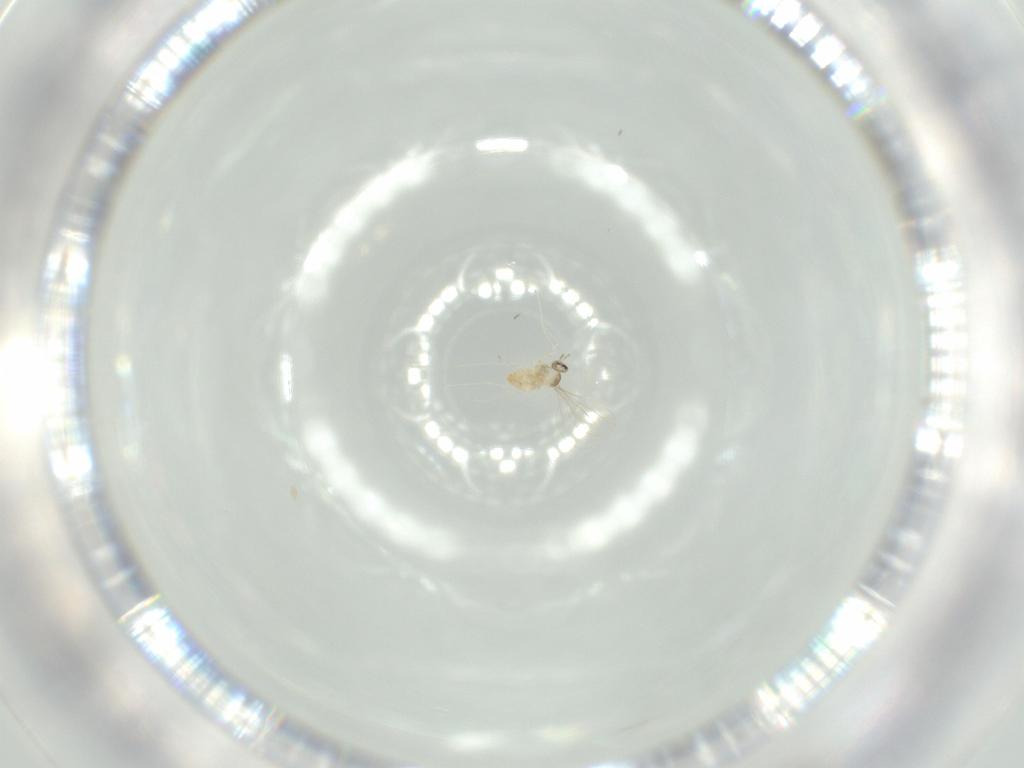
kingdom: Animalia
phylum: Arthropoda
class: Insecta
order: Diptera
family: Cecidomyiidae
